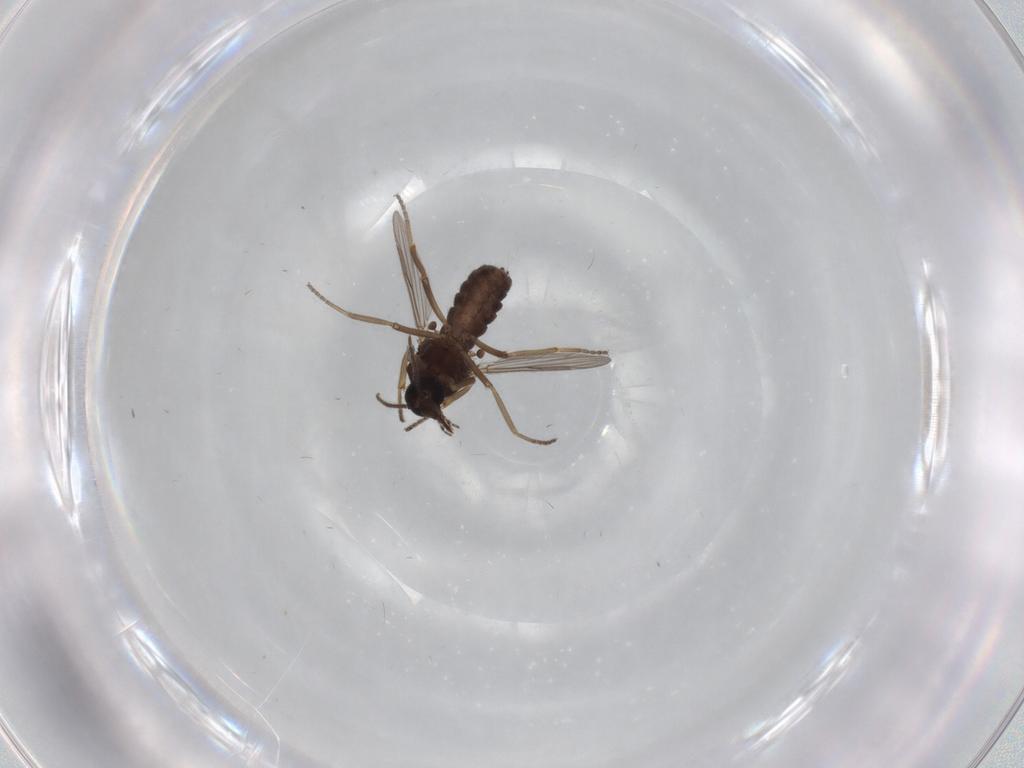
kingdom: Animalia
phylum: Arthropoda
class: Insecta
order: Diptera
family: Ceratopogonidae
